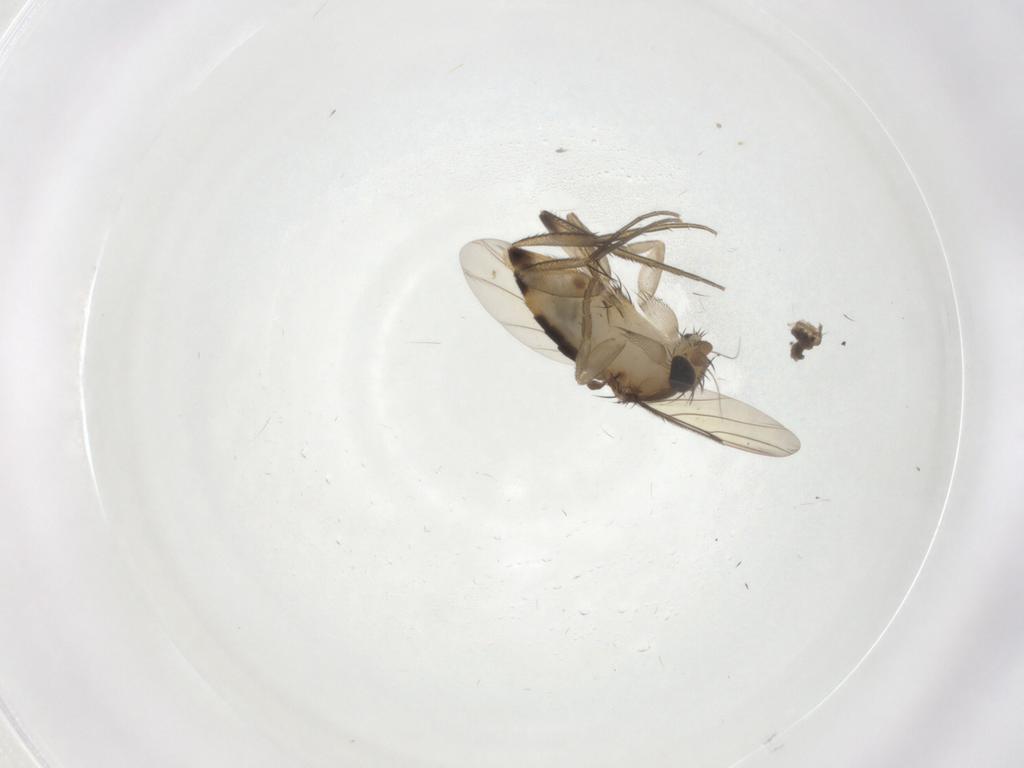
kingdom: Animalia
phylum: Arthropoda
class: Insecta
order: Diptera
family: Phoridae
